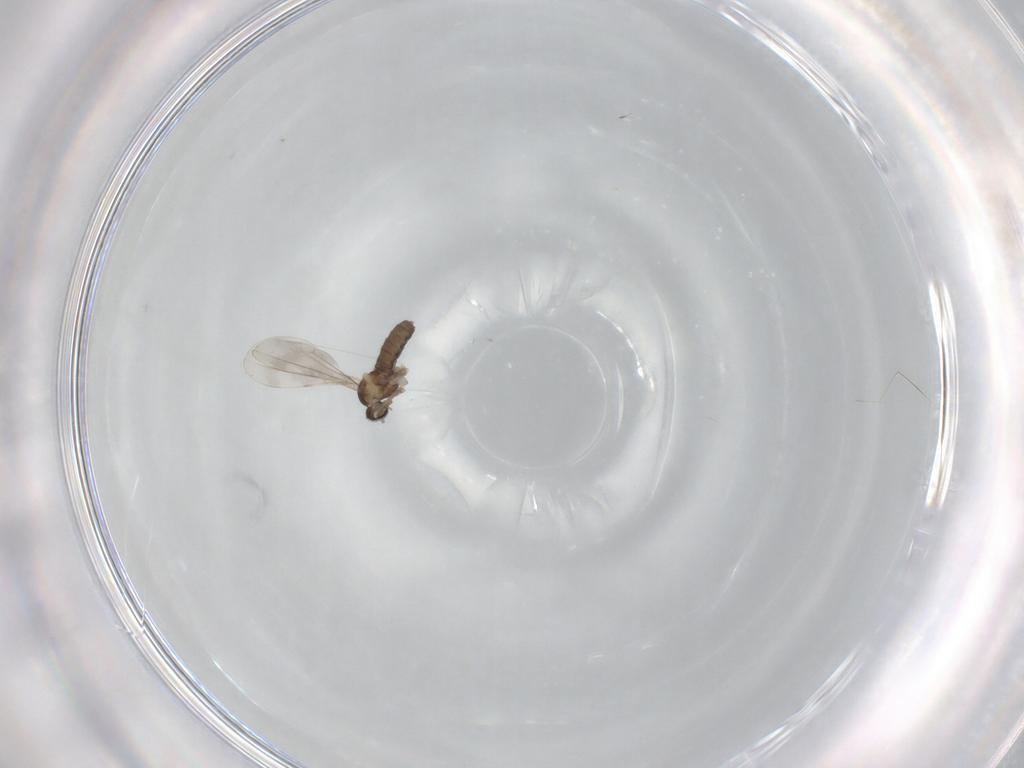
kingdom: Animalia
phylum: Arthropoda
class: Insecta
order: Diptera
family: Cecidomyiidae
